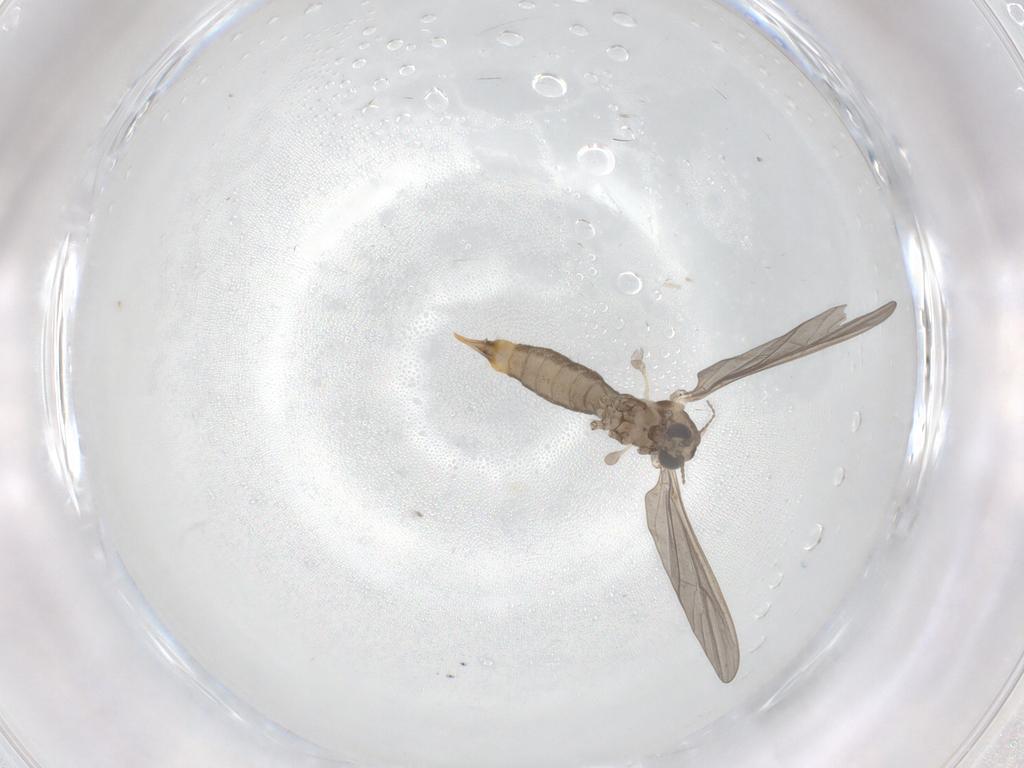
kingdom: Animalia
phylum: Arthropoda
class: Insecta
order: Diptera
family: Limoniidae
